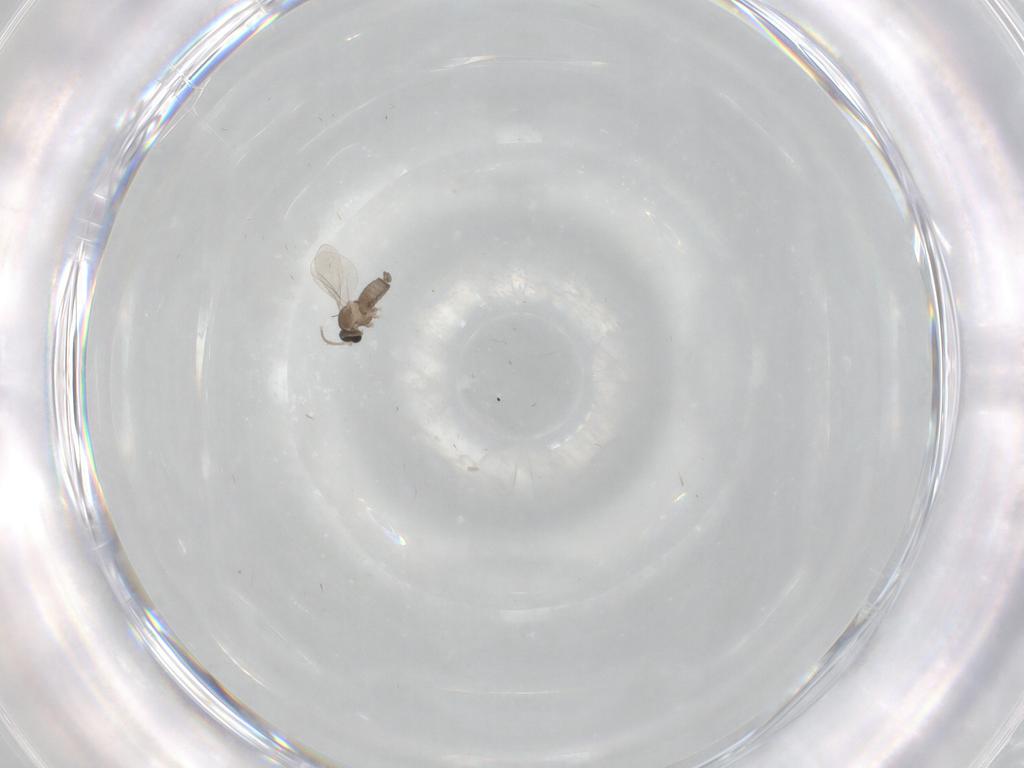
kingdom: Animalia
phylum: Arthropoda
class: Insecta
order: Diptera
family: Cecidomyiidae
